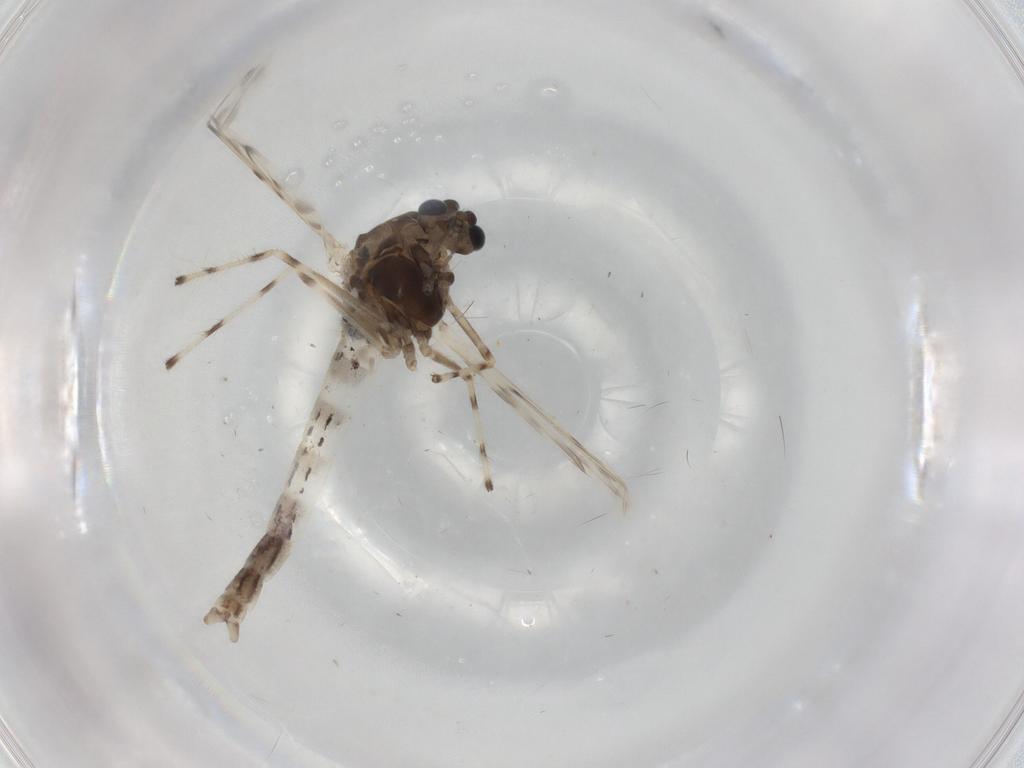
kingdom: Animalia
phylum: Arthropoda
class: Insecta
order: Diptera
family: Chironomidae
